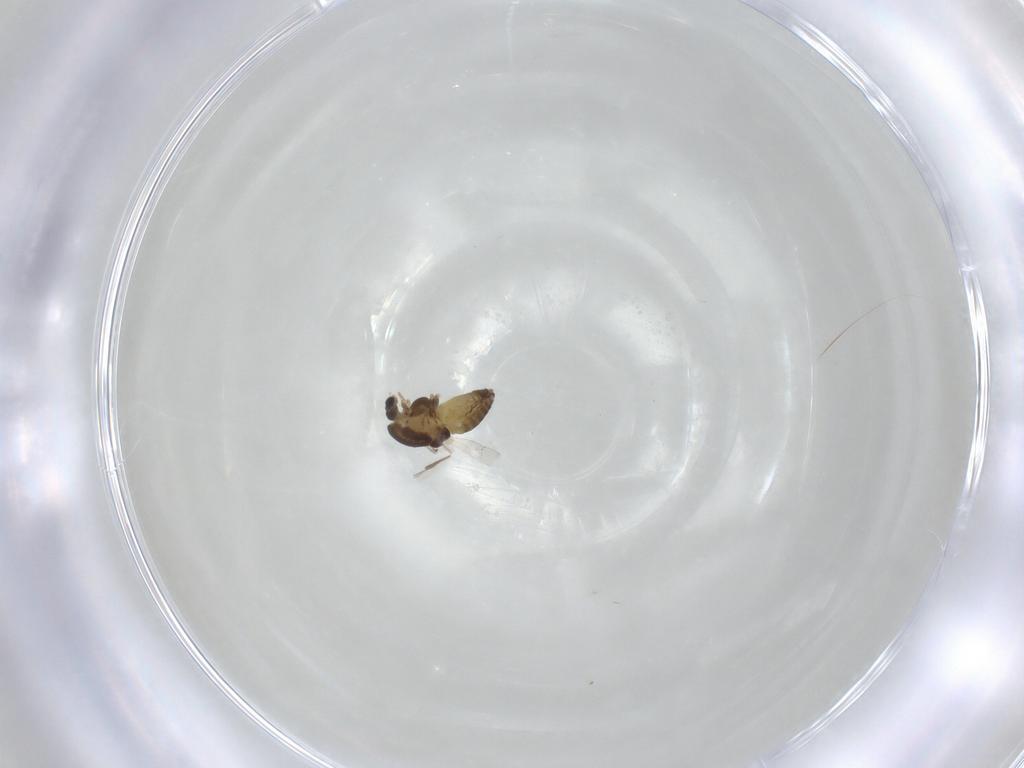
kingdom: Animalia
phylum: Arthropoda
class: Insecta
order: Diptera
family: Chironomidae
